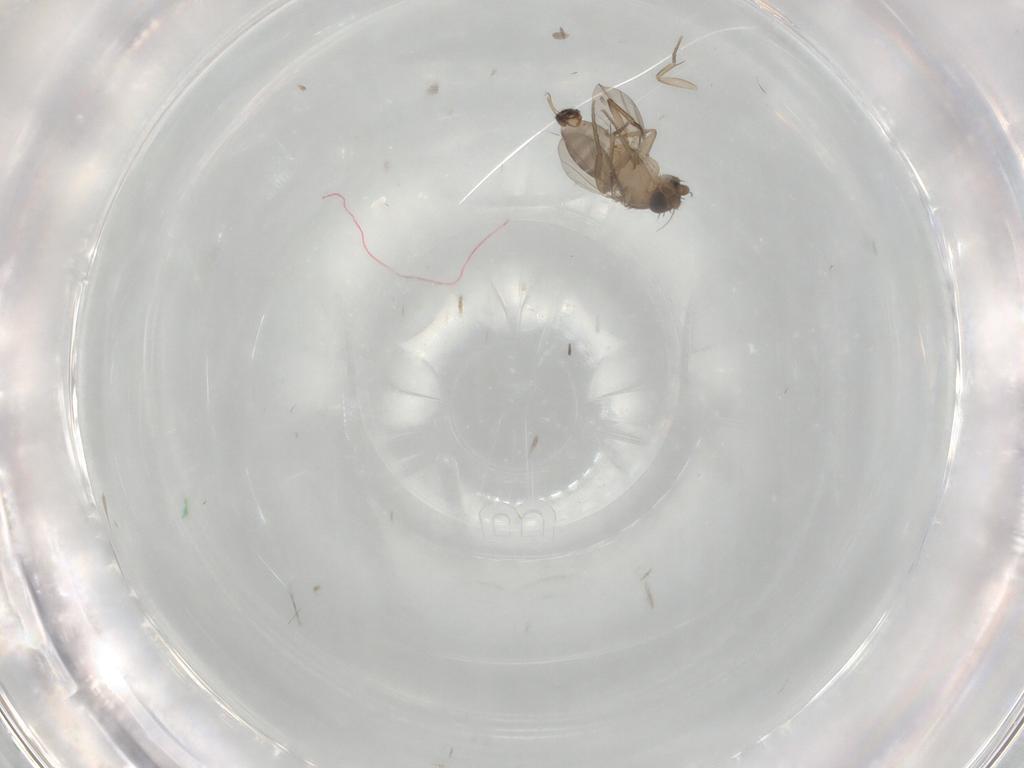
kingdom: Animalia
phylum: Arthropoda
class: Insecta
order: Diptera
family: Phoridae
